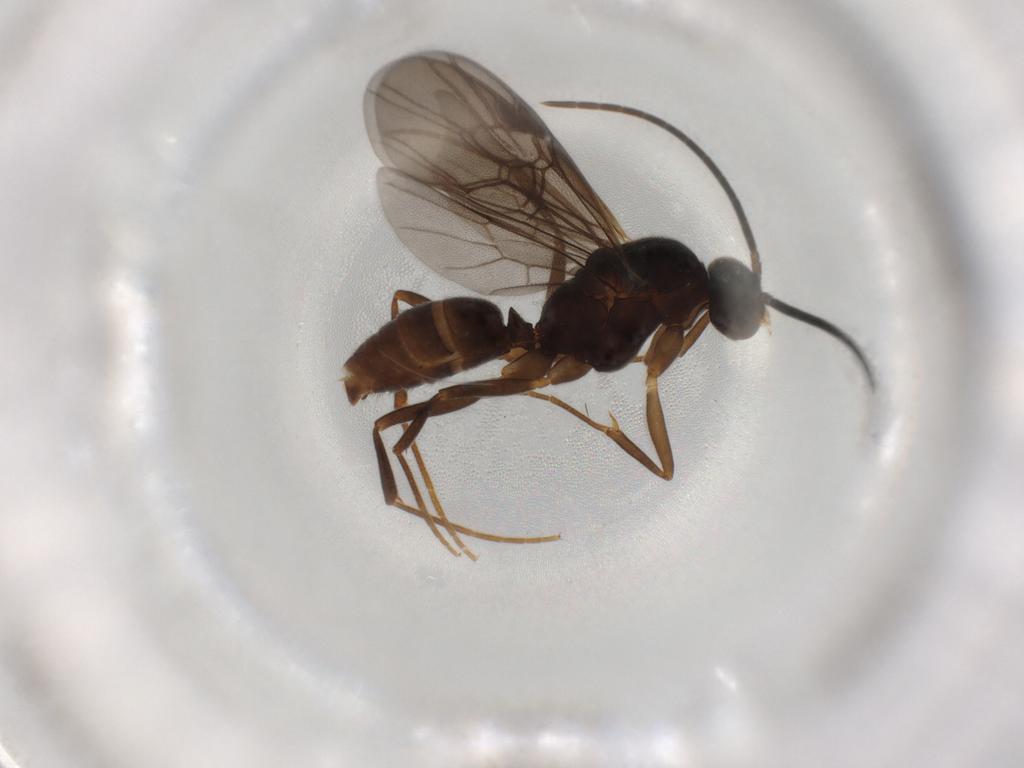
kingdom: Animalia
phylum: Arthropoda
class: Insecta
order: Hymenoptera
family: Formicidae
